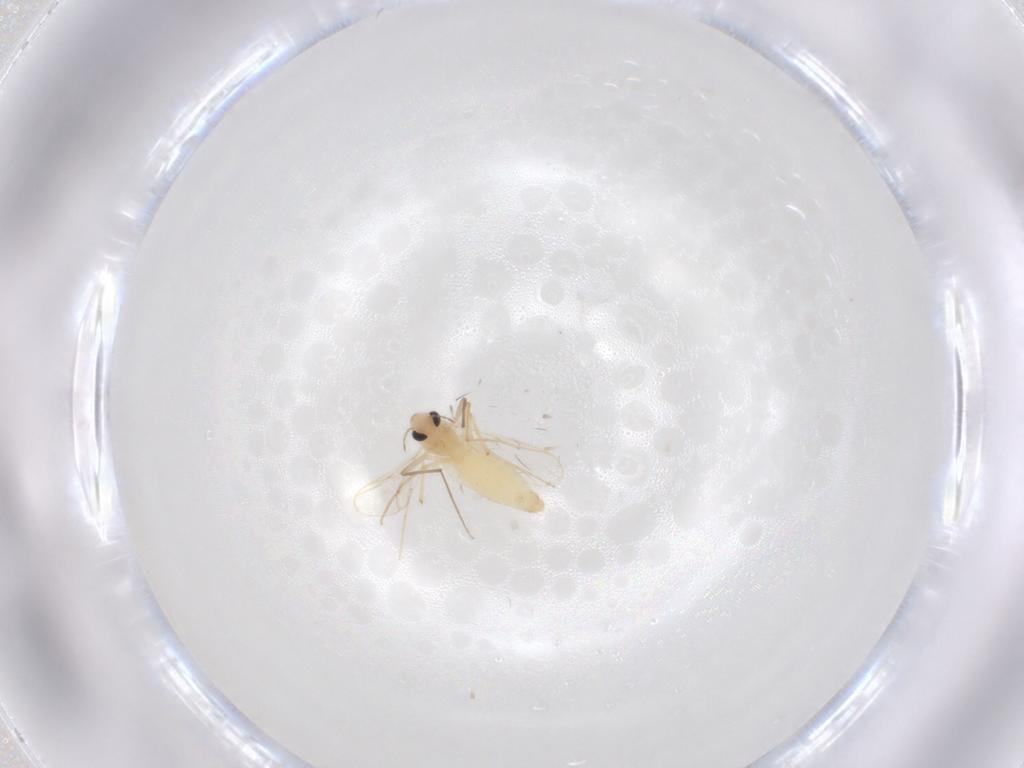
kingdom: Animalia
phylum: Arthropoda
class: Insecta
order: Diptera
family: Chironomidae
